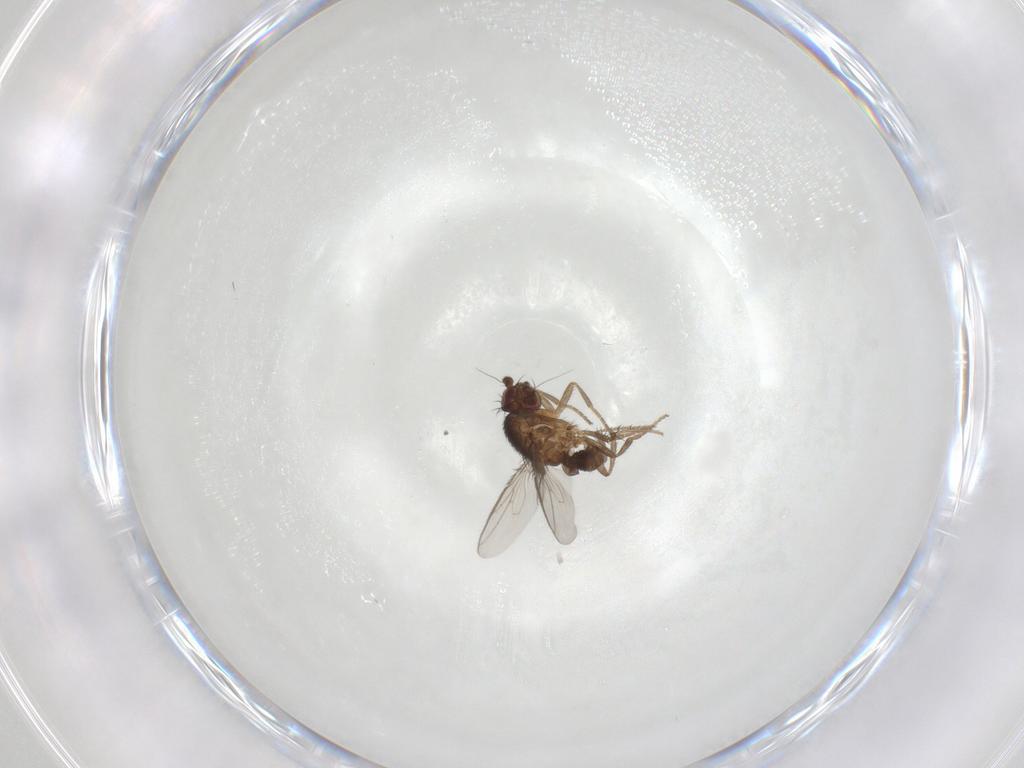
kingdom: Animalia
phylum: Arthropoda
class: Insecta
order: Diptera
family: Sphaeroceridae
